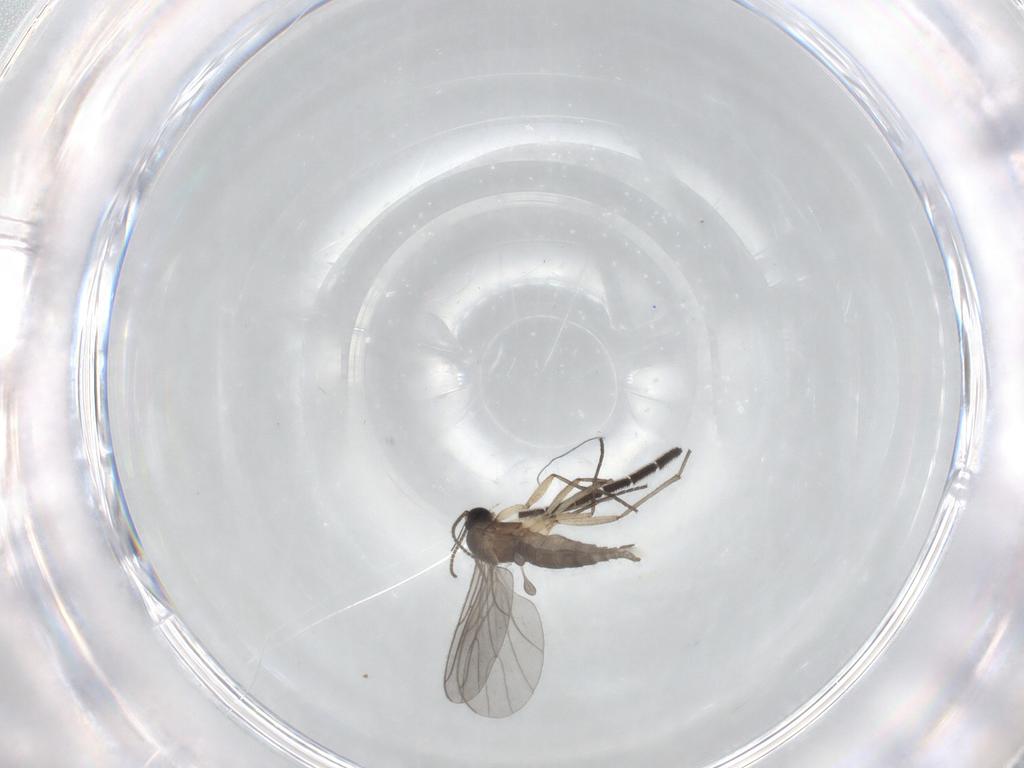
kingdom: Animalia
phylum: Arthropoda
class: Insecta
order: Diptera
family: Sciaridae
